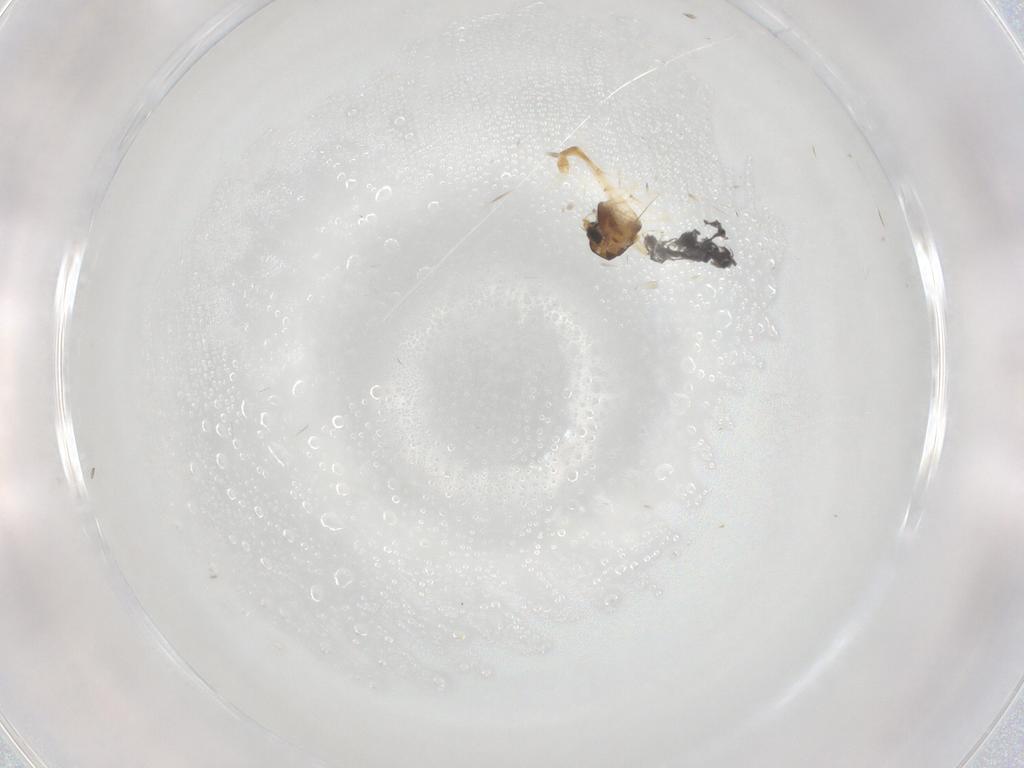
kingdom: Animalia
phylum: Arthropoda
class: Insecta
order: Diptera
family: Chironomidae
